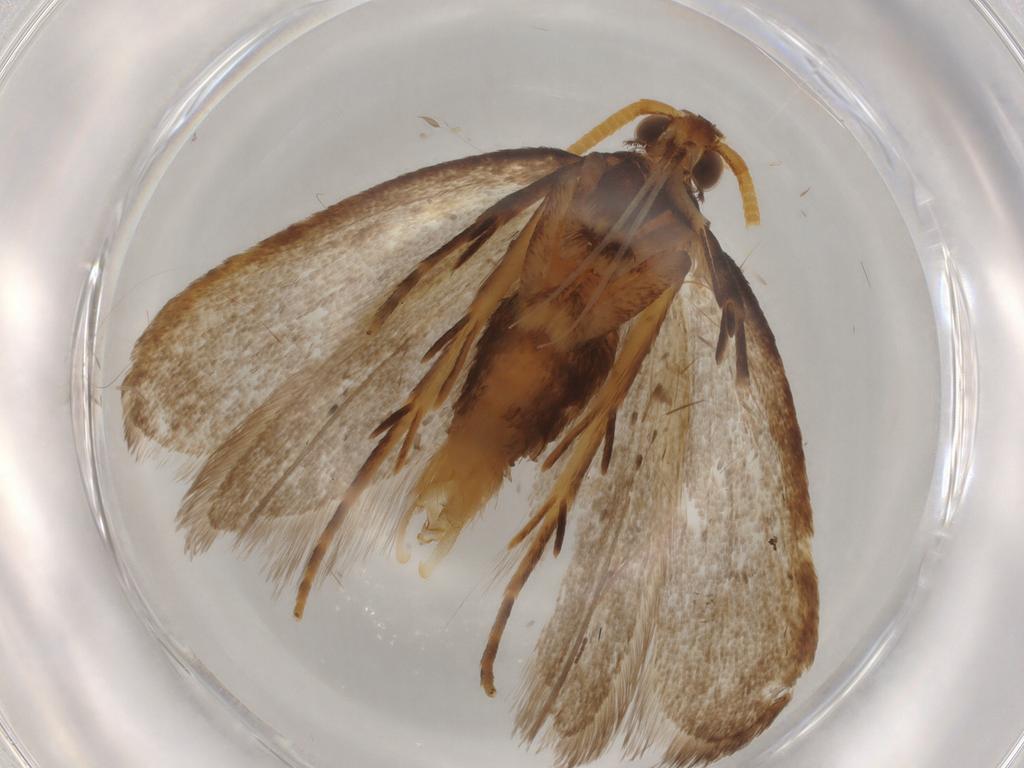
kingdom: Animalia
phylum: Arthropoda
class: Insecta
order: Lepidoptera
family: Lecithoceridae
